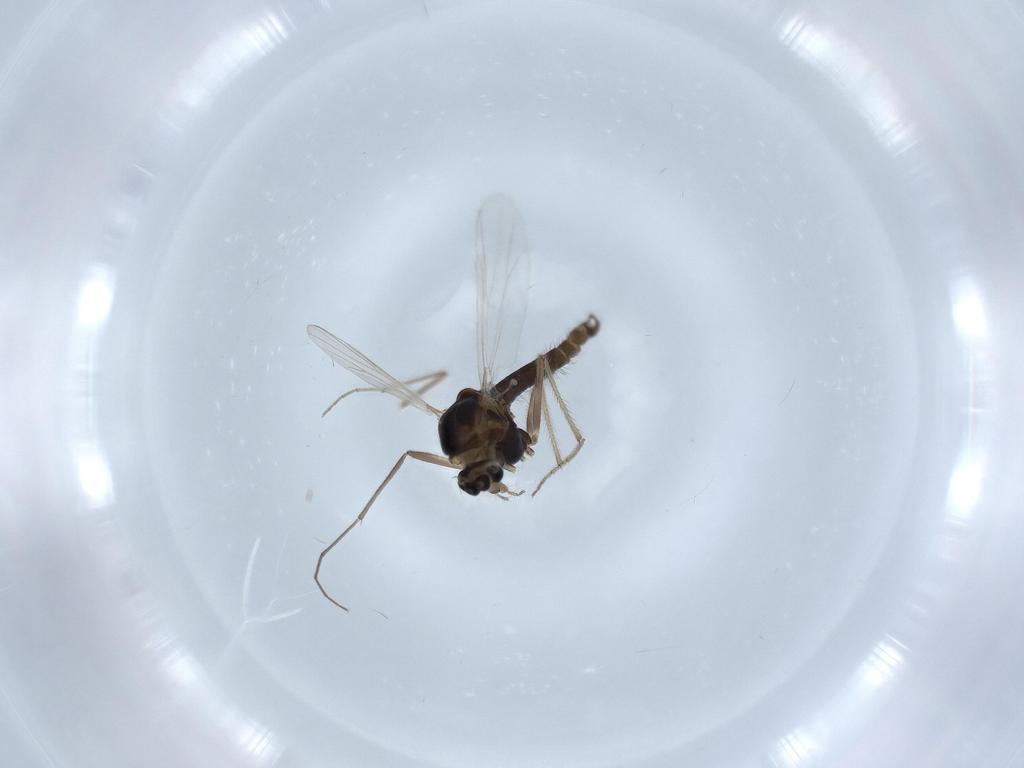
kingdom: Animalia
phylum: Arthropoda
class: Insecta
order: Diptera
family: Chironomidae
